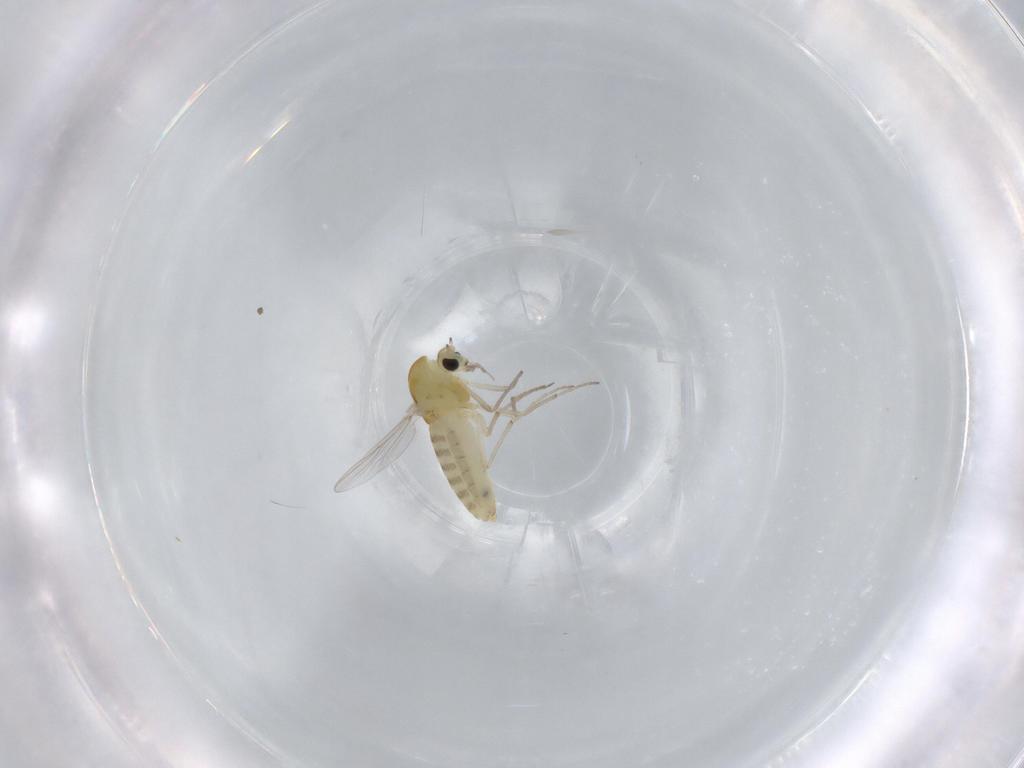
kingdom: Animalia
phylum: Arthropoda
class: Insecta
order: Diptera
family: Chironomidae
